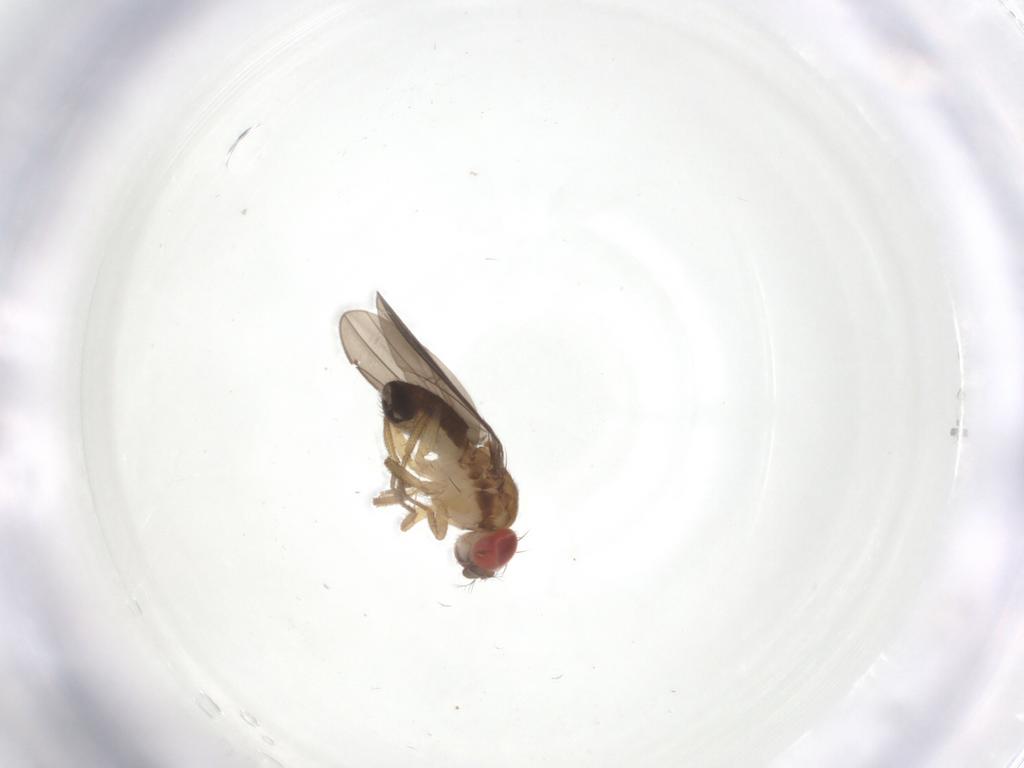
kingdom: Animalia
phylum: Arthropoda
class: Insecta
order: Diptera
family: Drosophilidae
